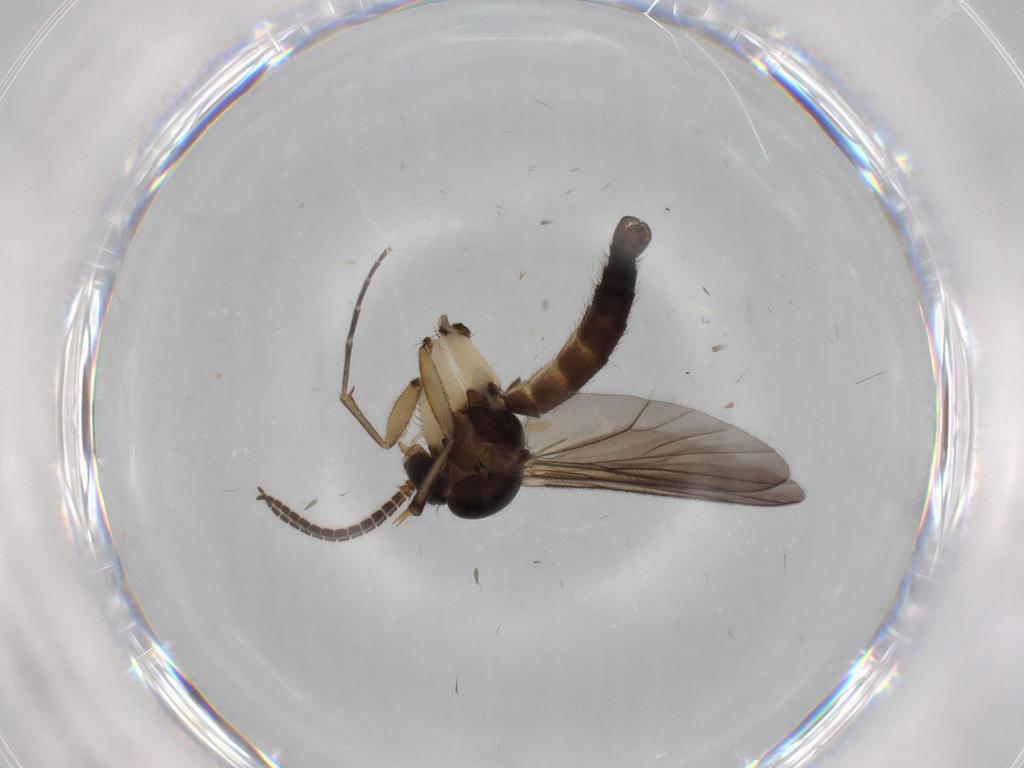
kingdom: Animalia
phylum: Arthropoda
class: Insecta
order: Diptera
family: Mycetophilidae
